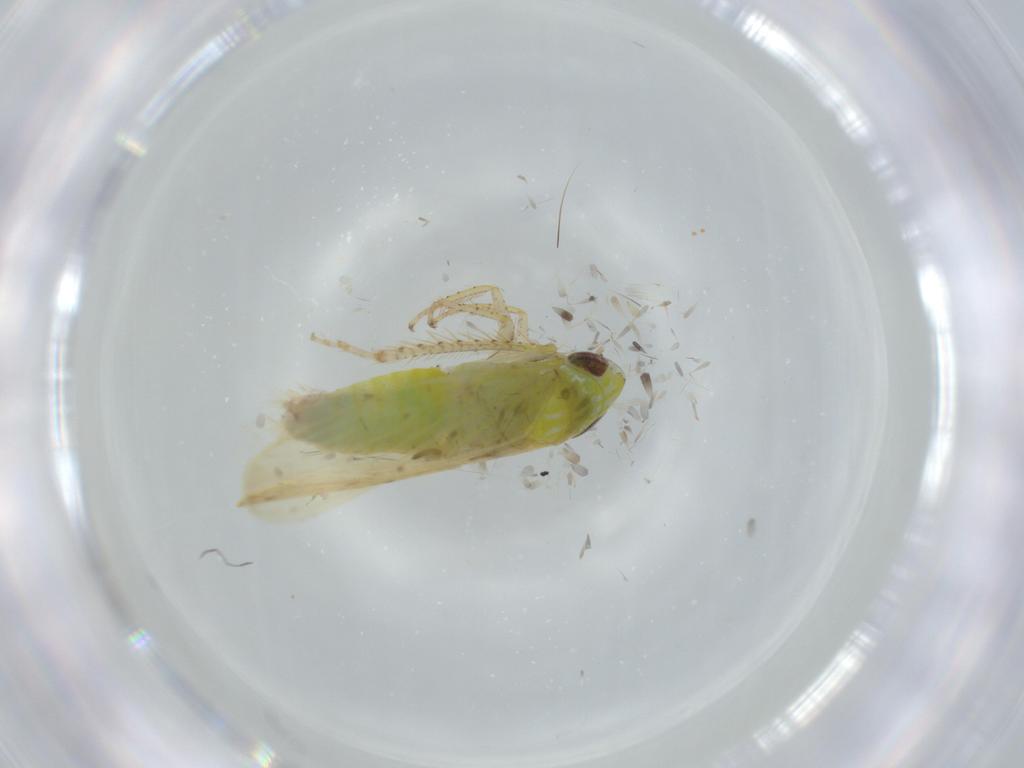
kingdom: Animalia
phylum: Arthropoda
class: Insecta
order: Hemiptera
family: Cicadellidae
